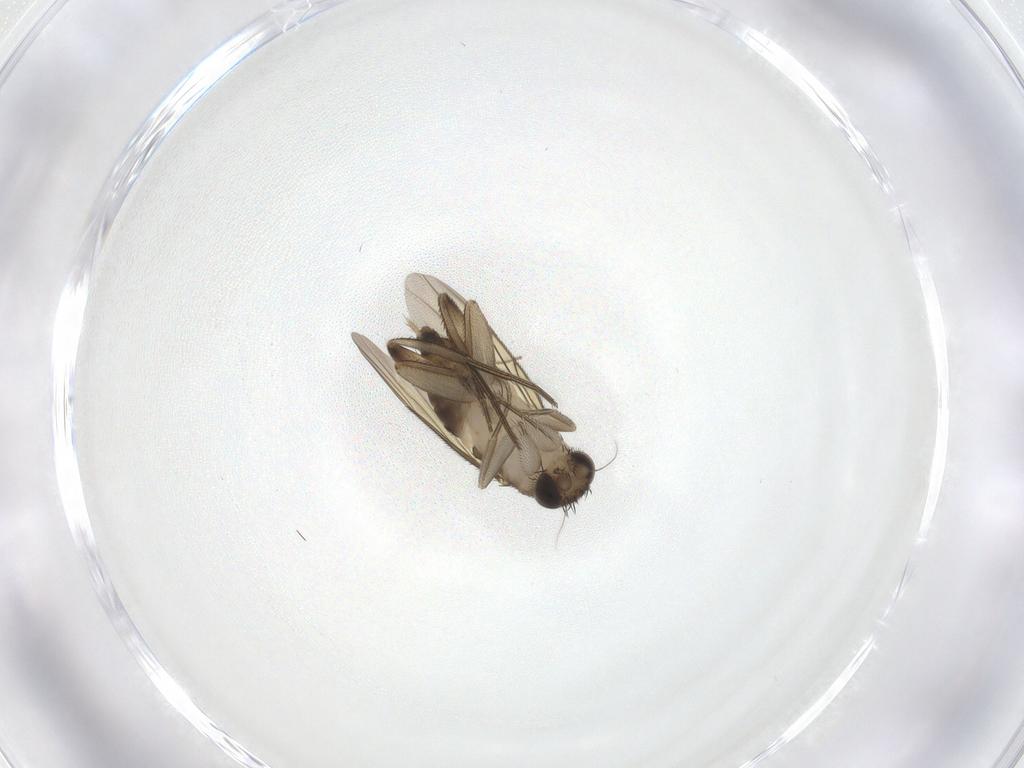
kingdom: Animalia
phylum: Arthropoda
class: Insecta
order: Diptera
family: Phoridae
